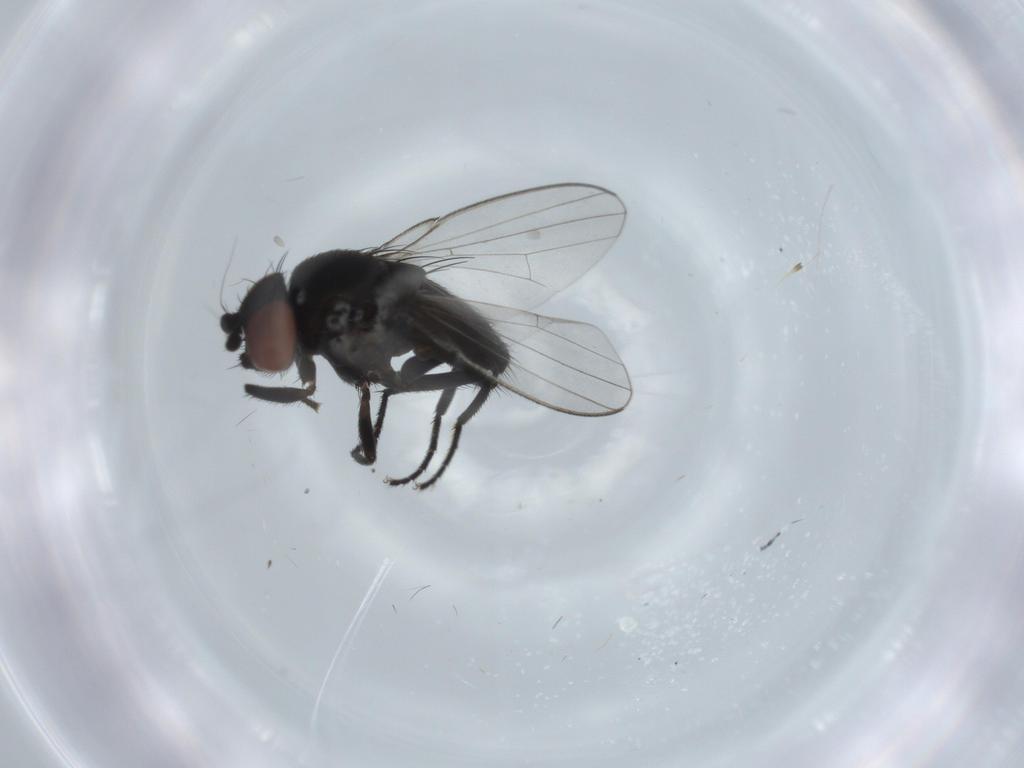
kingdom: Animalia
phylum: Arthropoda
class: Insecta
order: Diptera
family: Milichiidae
